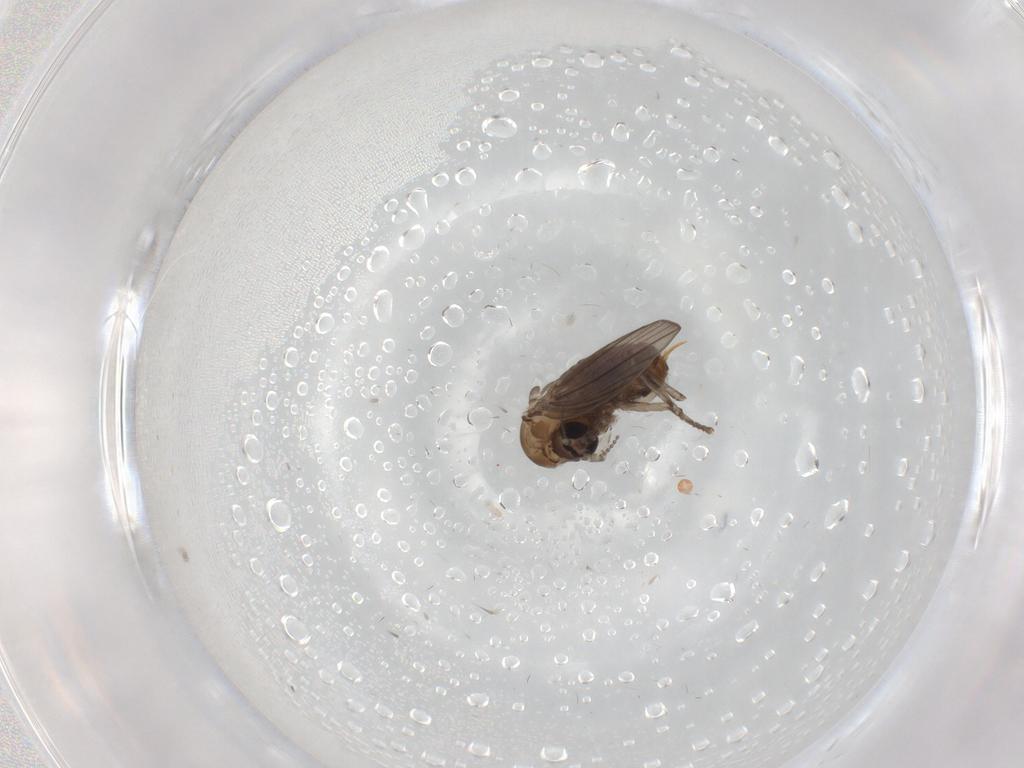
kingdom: Animalia
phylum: Arthropoda
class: Insecta
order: Diptera
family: Psychodidae
